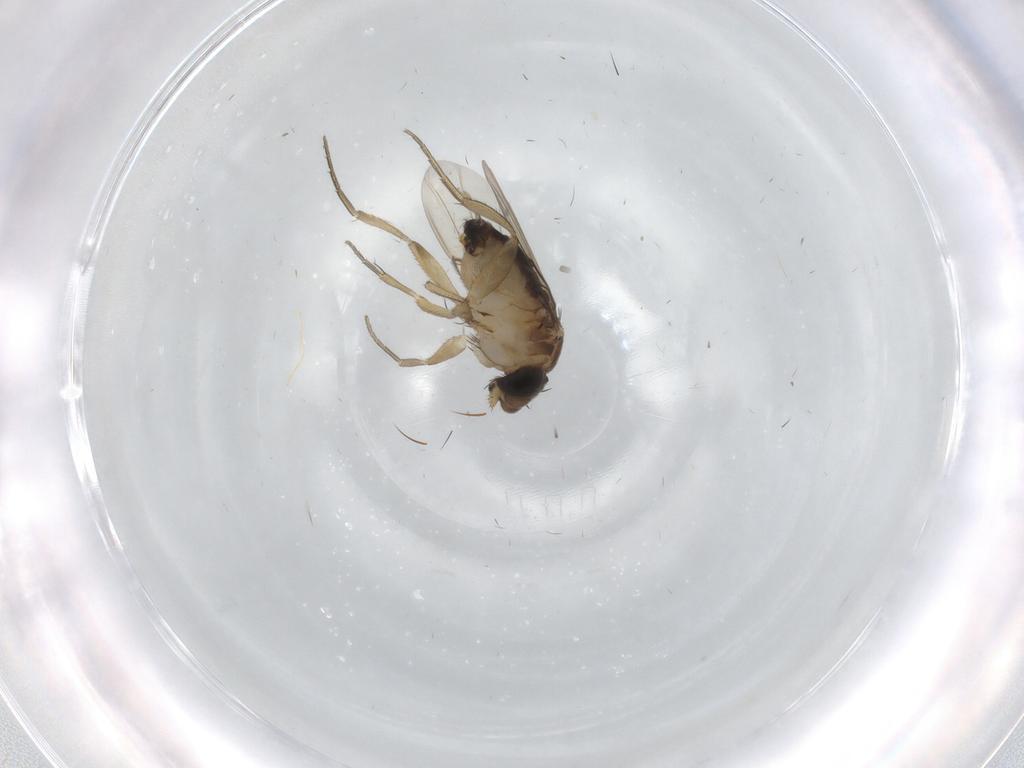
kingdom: Animalia
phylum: Arthropoda
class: Insecta
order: Diptera
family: Phoridae
